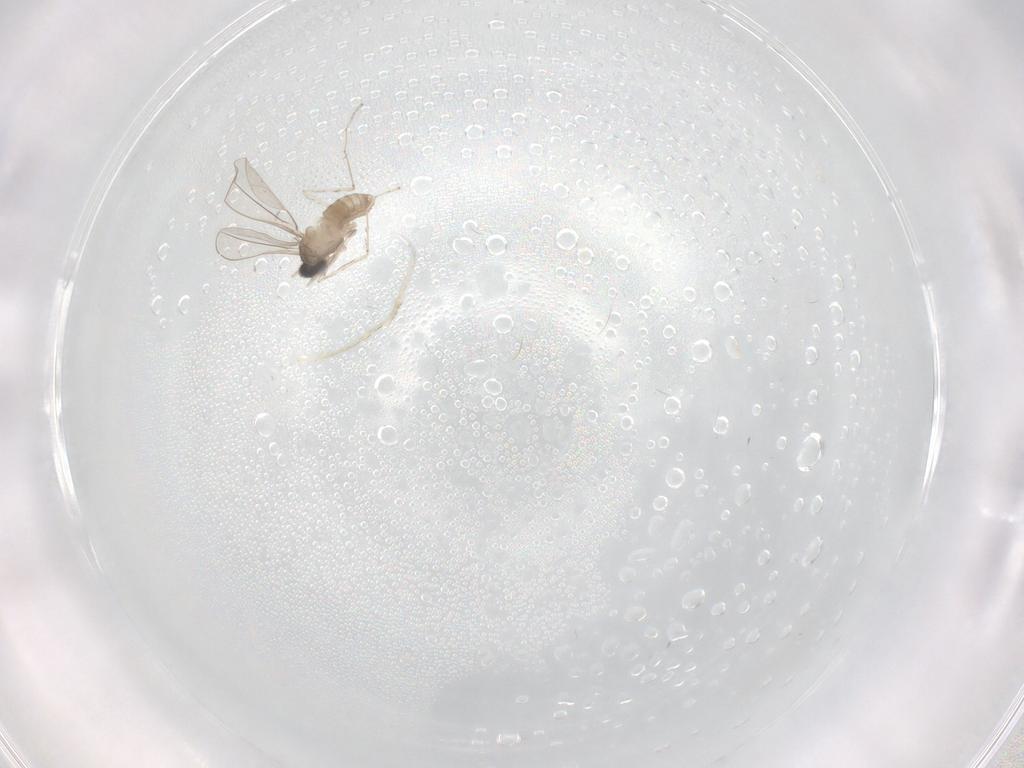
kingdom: Animalia
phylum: Arthropoda
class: Insecta
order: Diptera
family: Cecidomyiidae
